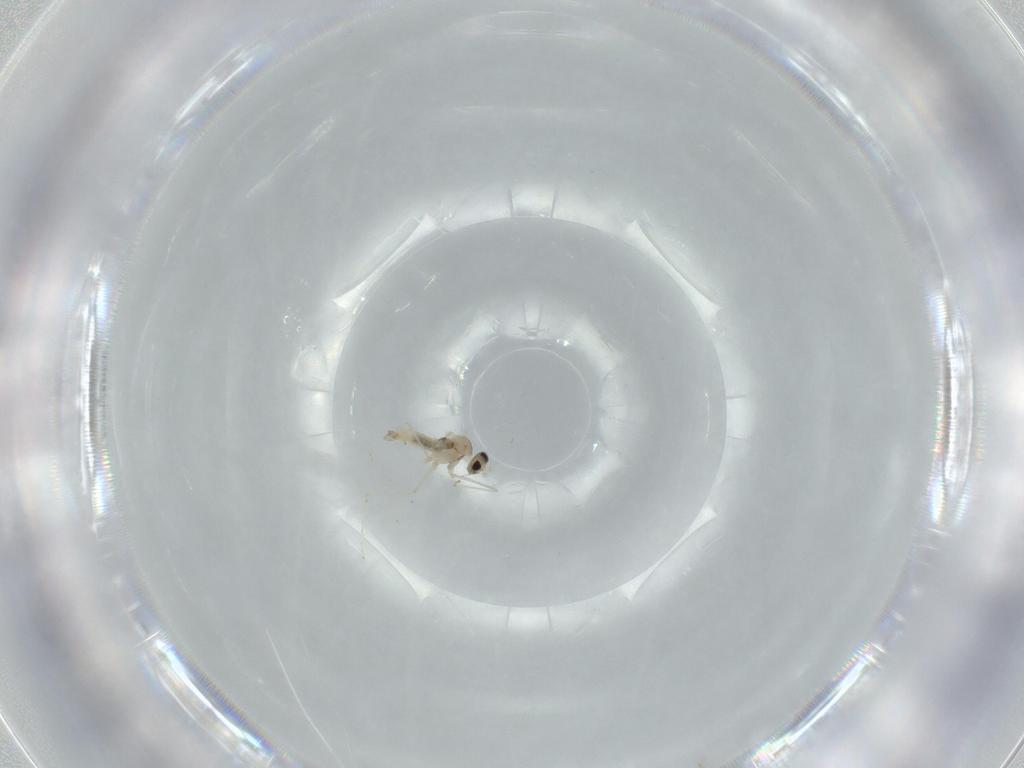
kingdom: Animalia
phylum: Arthropoda
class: Insecta
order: Diptera
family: Cecidomyiidae
